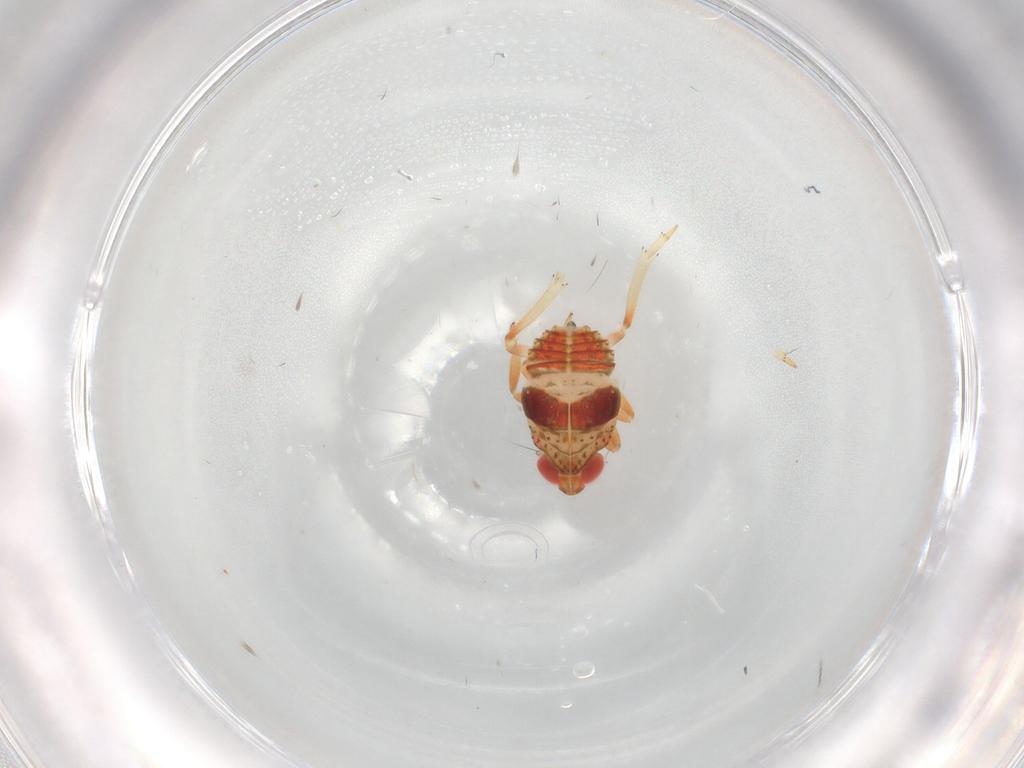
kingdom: Animalia
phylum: Arthropoda
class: Insecta
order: Hemiptera
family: Issidae
